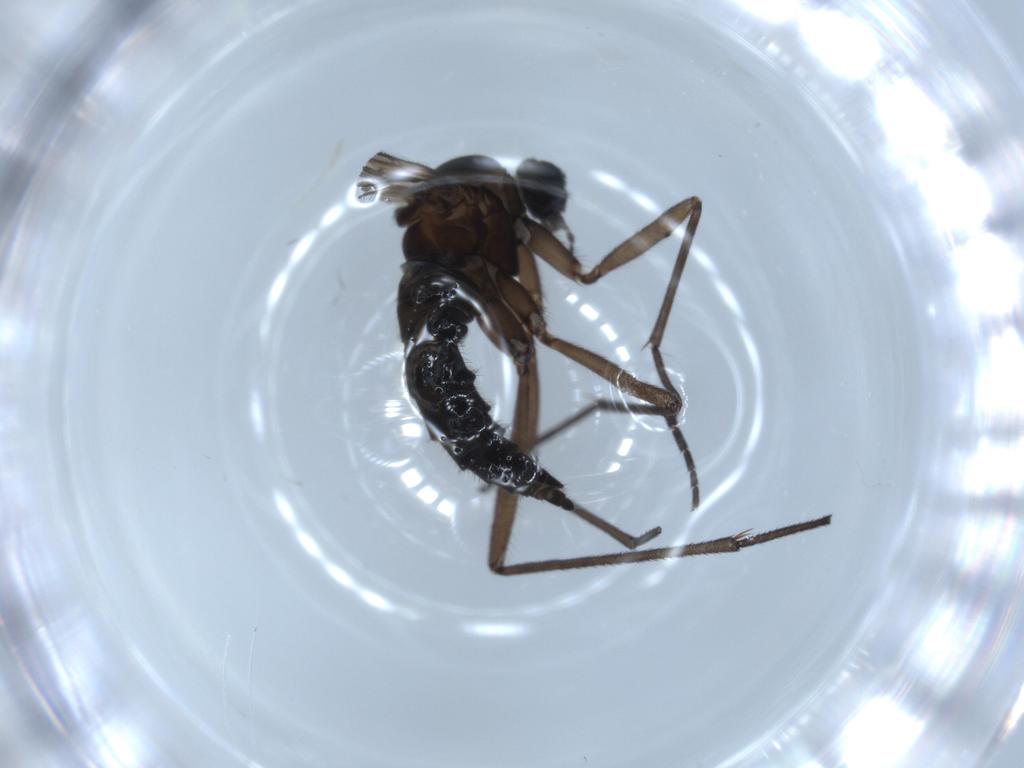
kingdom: Animalia
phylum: Arthropoda
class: Insecta
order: Diptera
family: Sciaridae
